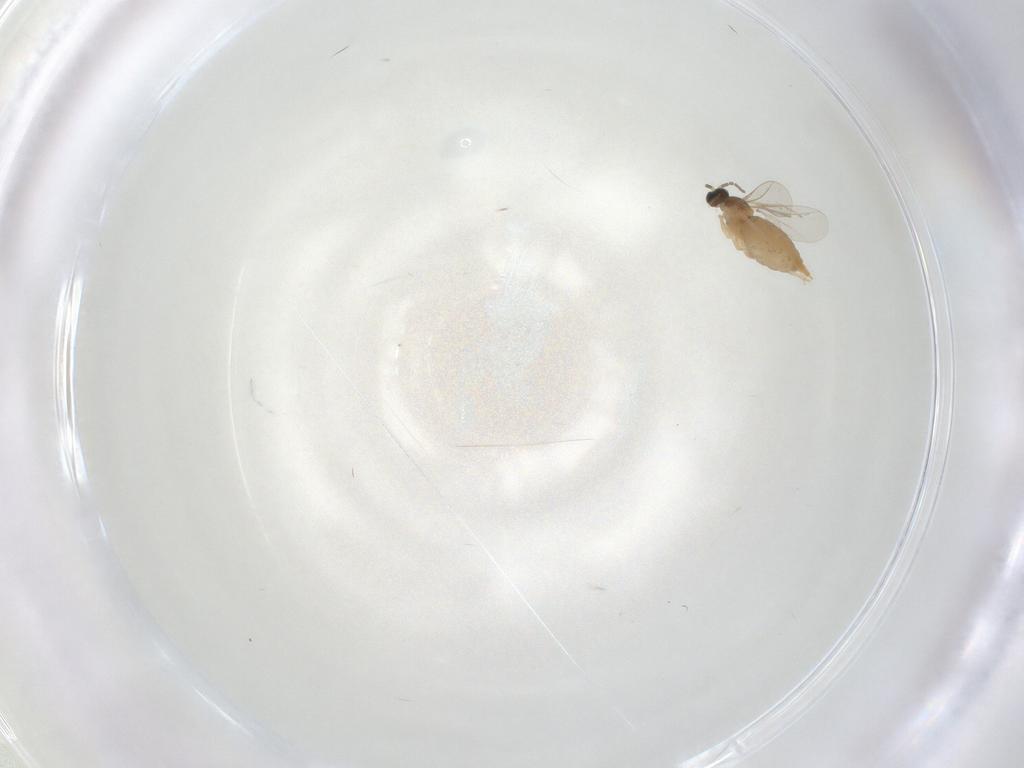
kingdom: Animalia
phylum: Arthropoda
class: Insecta
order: Diptera
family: Cecidomyiidae
